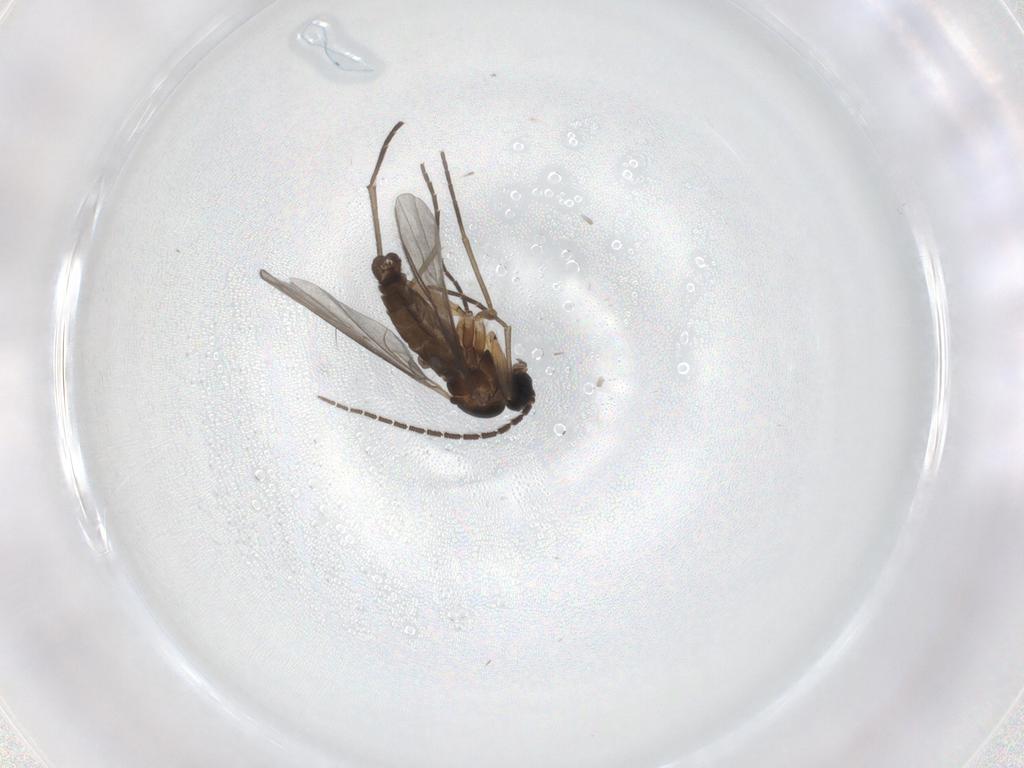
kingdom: Animalia
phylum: Arthropoda
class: Insecta
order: Diptera
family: Sciaridae
